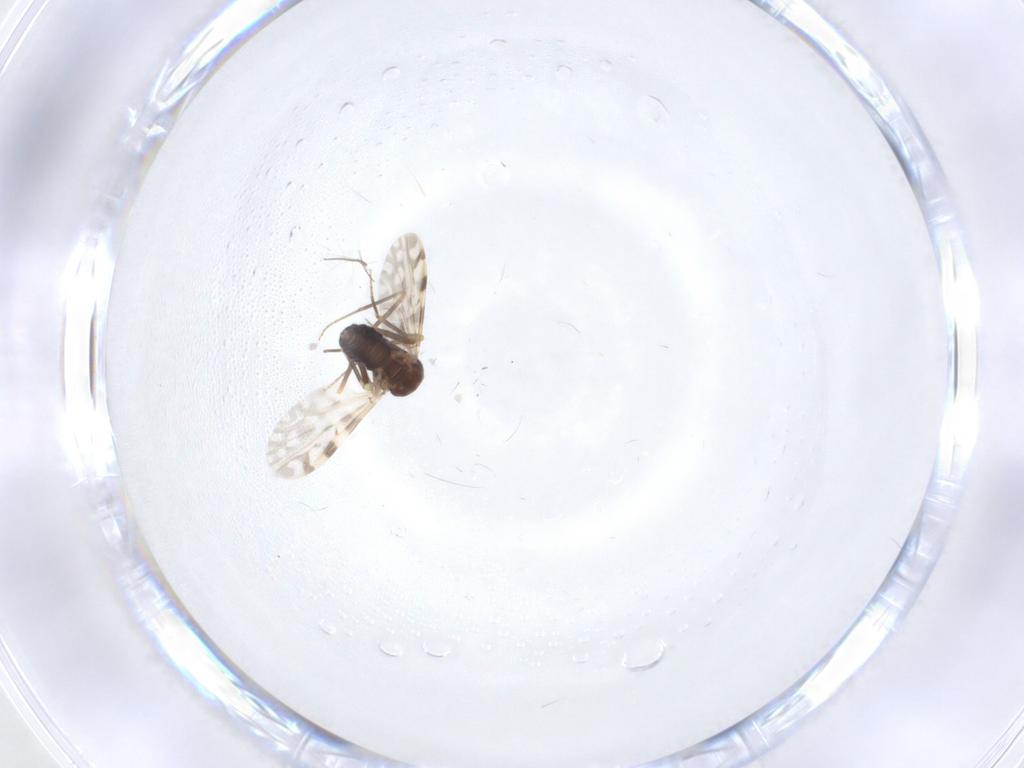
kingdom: Animalia
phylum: Arthropoda
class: Insecta
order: Diptera
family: Ceratopogonidae
